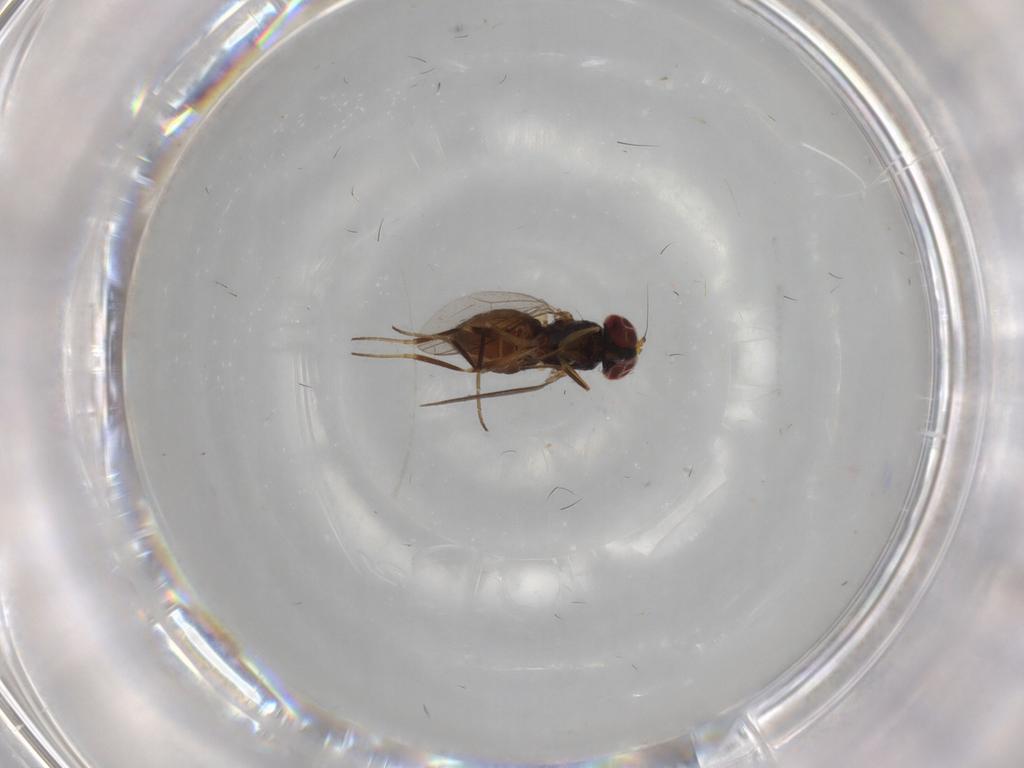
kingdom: Animalia
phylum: Arthropoda
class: Insecta
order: Diptera
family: Dolichopodidae
